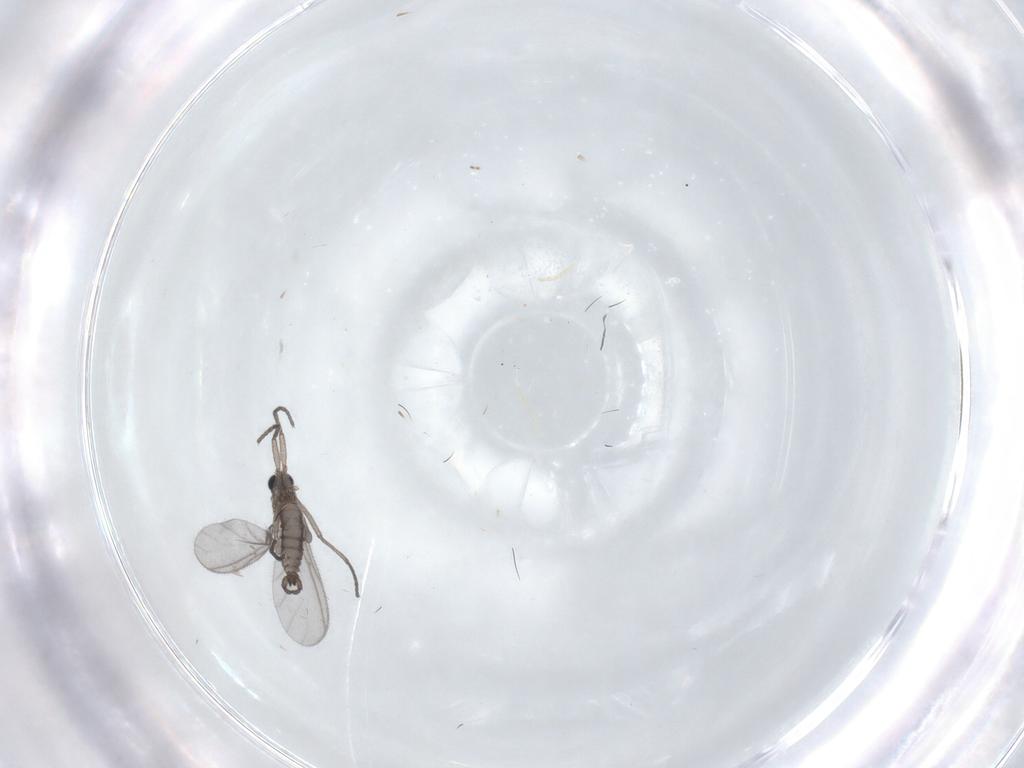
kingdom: Animalia
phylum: Arthropoda
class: Insecta
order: Diptera
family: Sciaridae
